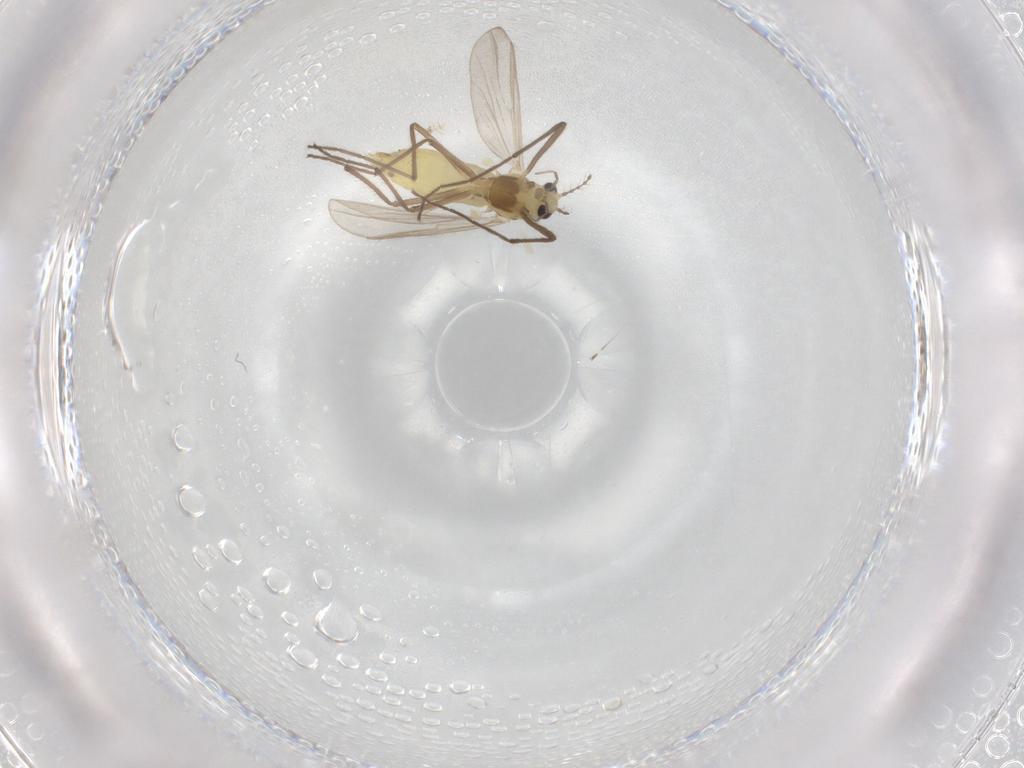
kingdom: Animalia
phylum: Arthropoda
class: Insecta
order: Diptera
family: Chironomidae
